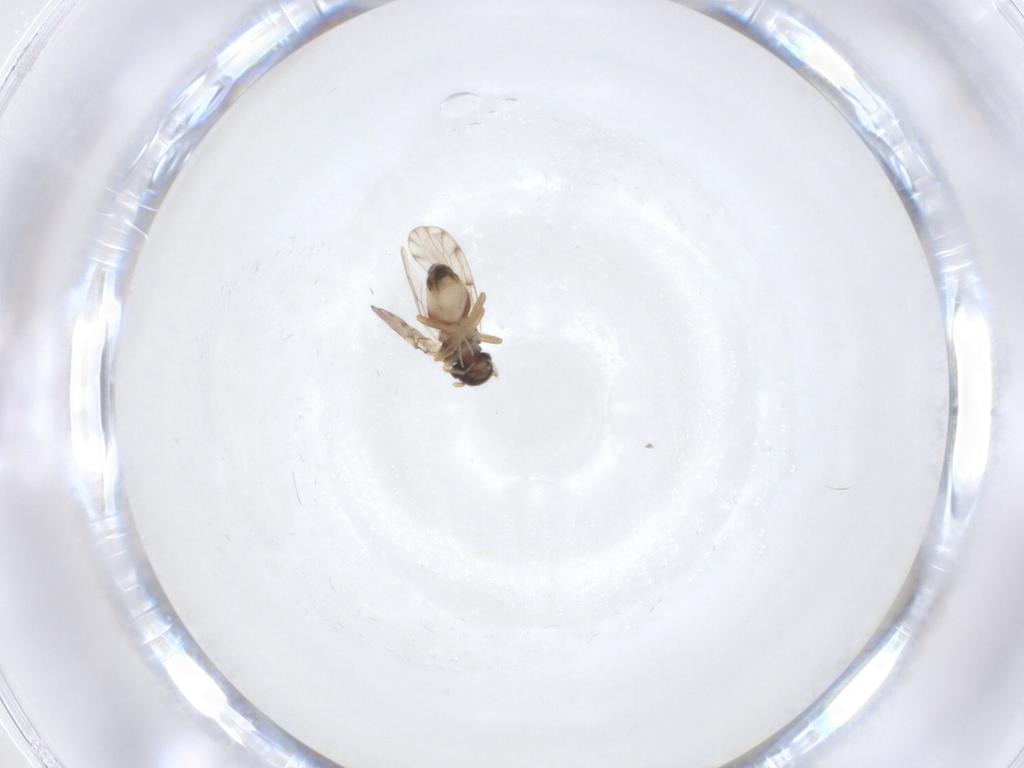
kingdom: Animalia
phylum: Arthropoda
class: Insecta
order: Psocodea
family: Peripsocidae
